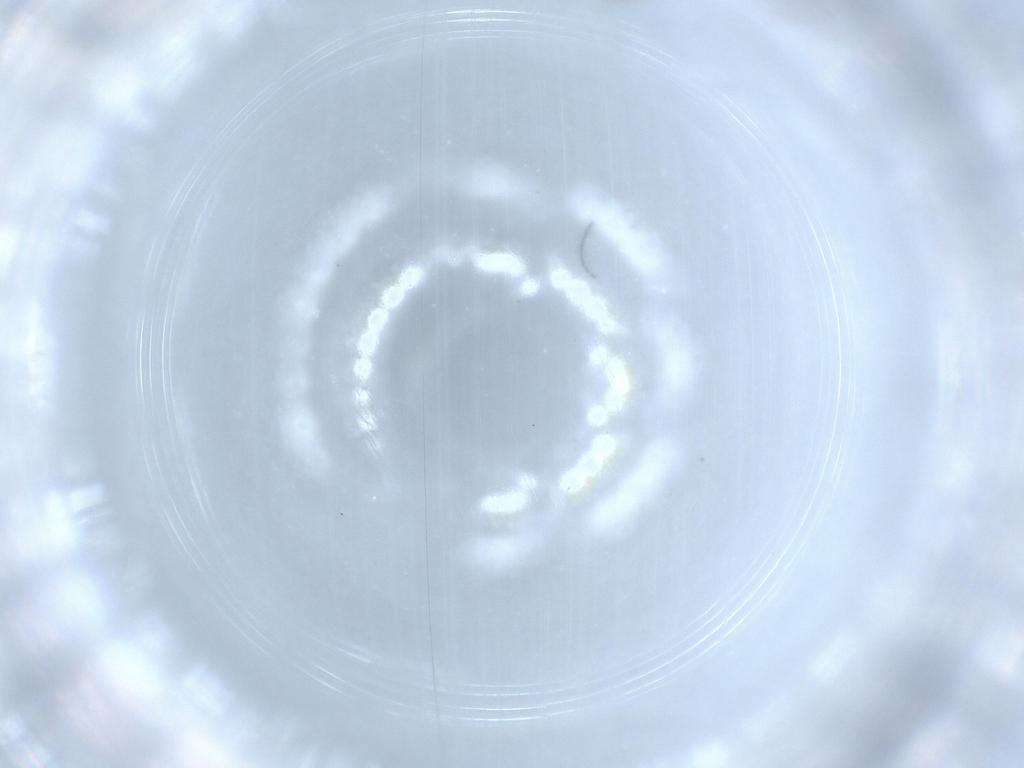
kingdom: Animalia
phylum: Arthropoda
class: Insecta
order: Diptera
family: Cecidomyiidae
